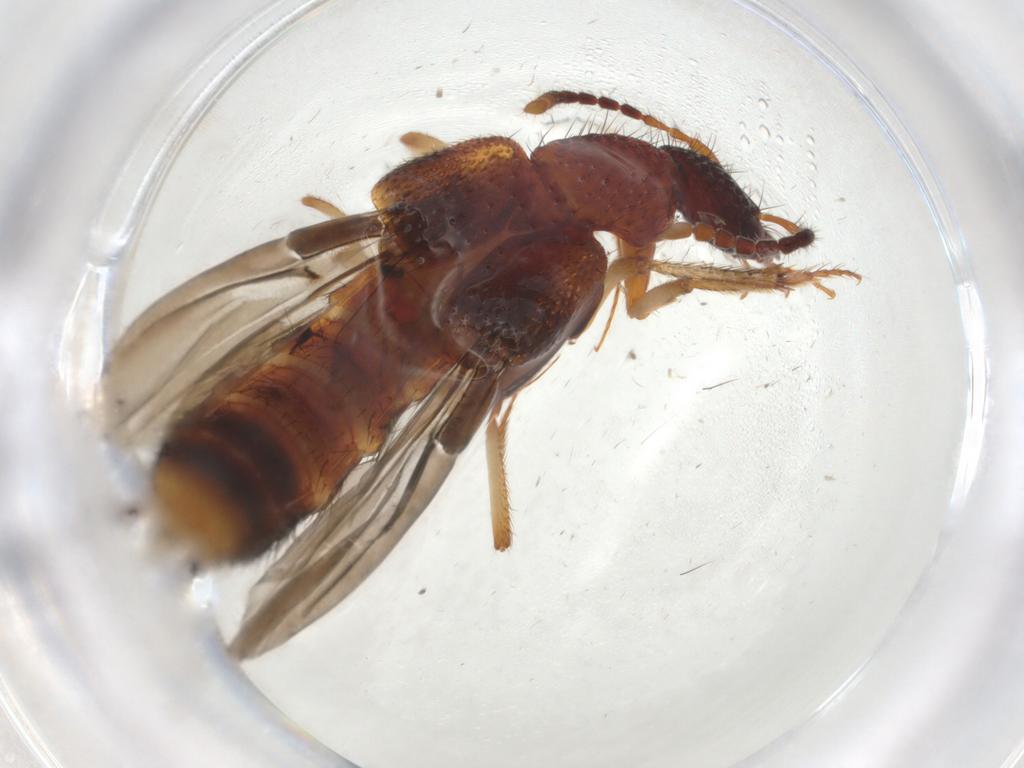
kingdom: Animalia
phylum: Arthropoda
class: Insecta
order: Coleoptera
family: Staphylinidae
